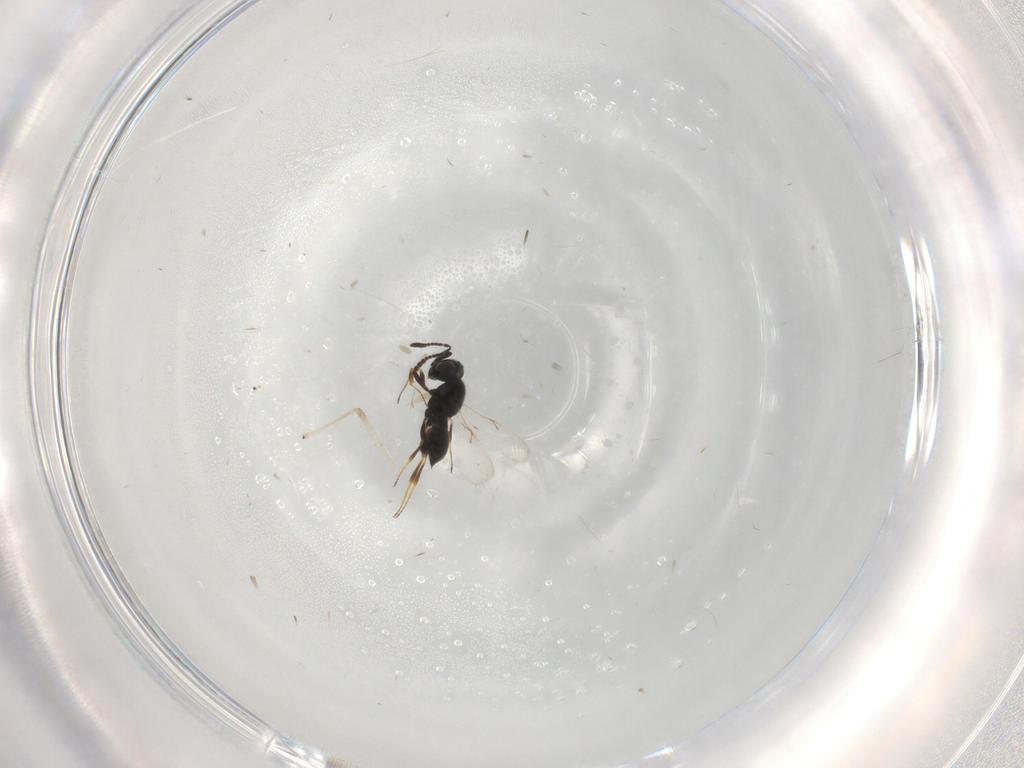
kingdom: Animalia
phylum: Arthropoda
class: Insecta
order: Hymenoptera
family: Scelionidae
